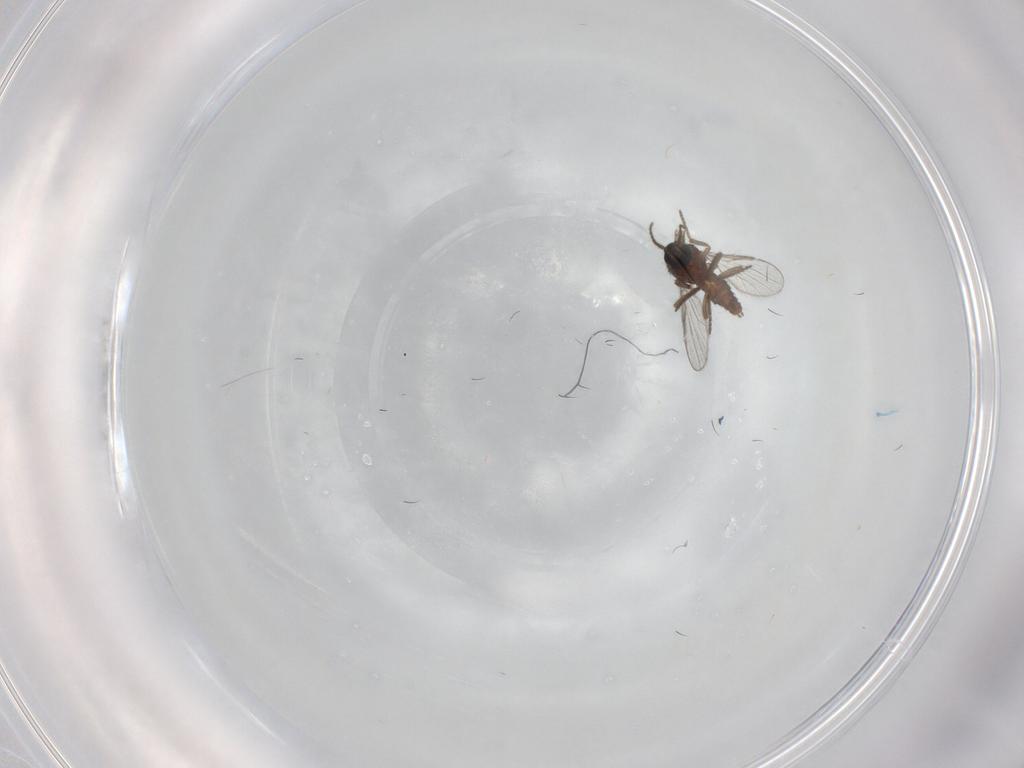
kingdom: Animalia
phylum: Arthropoda
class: Insecta
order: Diptera
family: Ceratopogonidae
